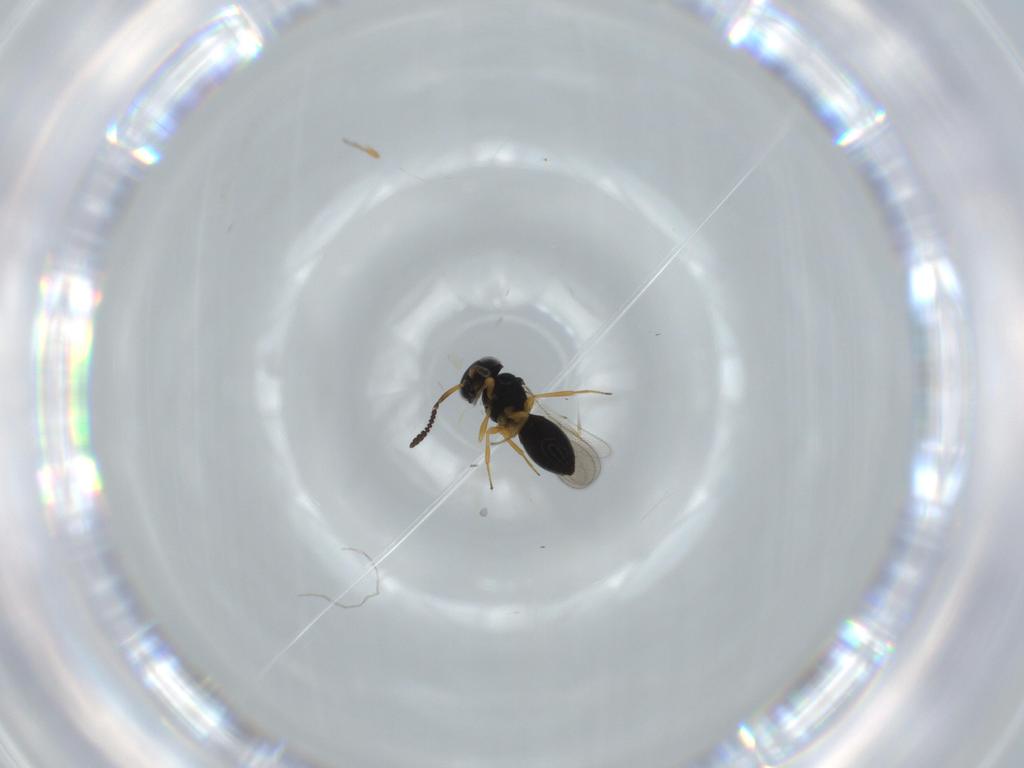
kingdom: Animalia
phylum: Arthropoda
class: Insecta
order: Hymenoptera
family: Scelionidae
